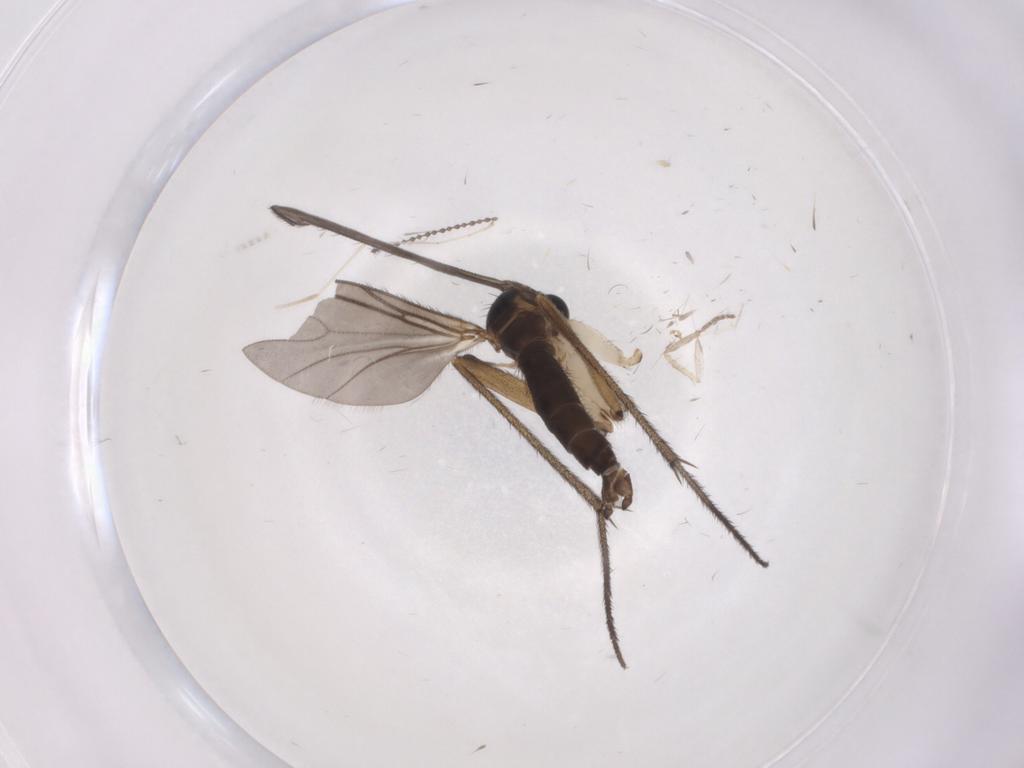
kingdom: Animalia
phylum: Arthropoda
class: Insecta
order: Diptera
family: Sciaridae
